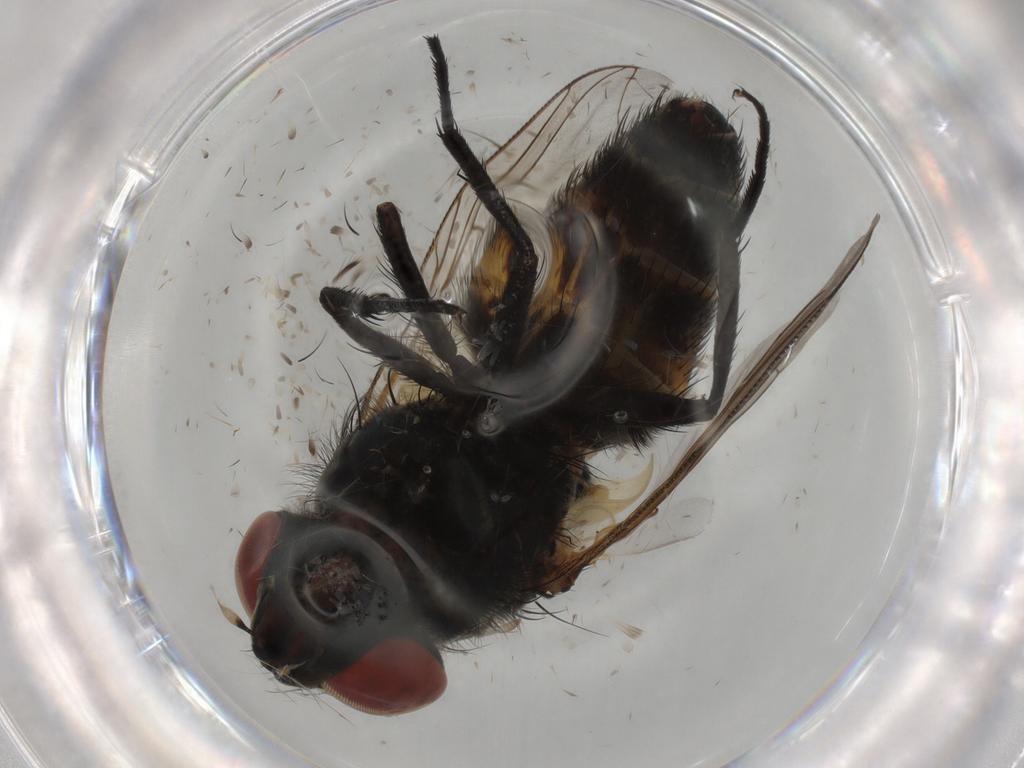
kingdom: Animalia
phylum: Arthropoda
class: Insecta
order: Diptera
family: Sarcophagidae
